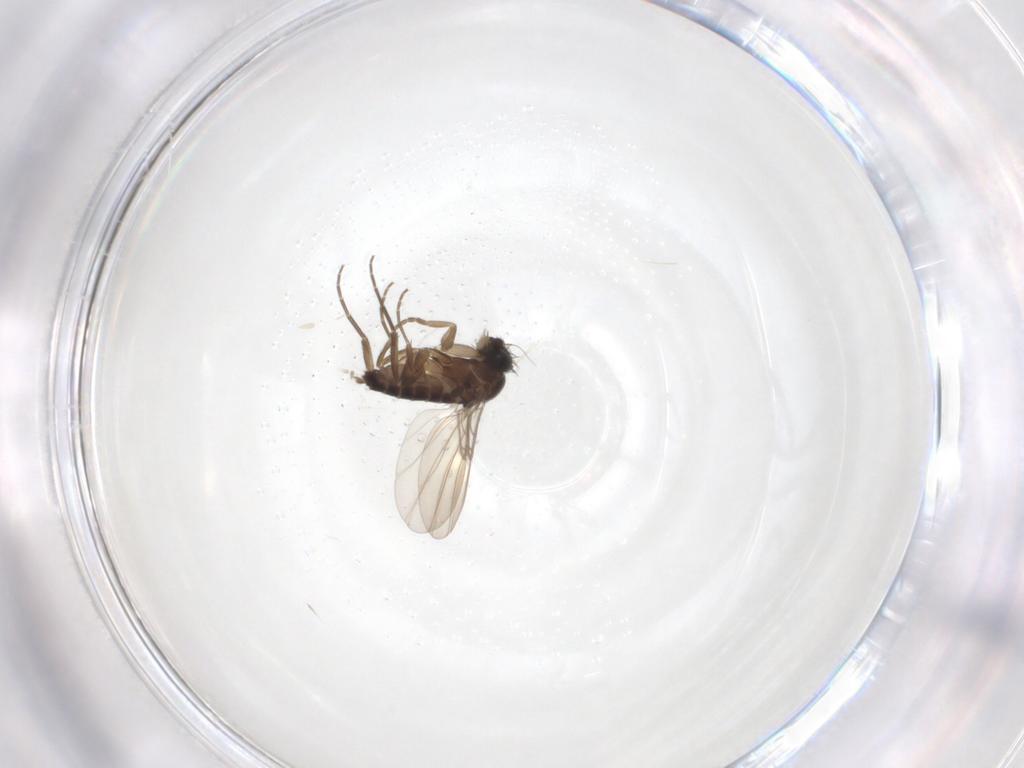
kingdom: Animalia
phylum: Arthropoda
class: Insecta
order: Diptera
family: Phoridae
